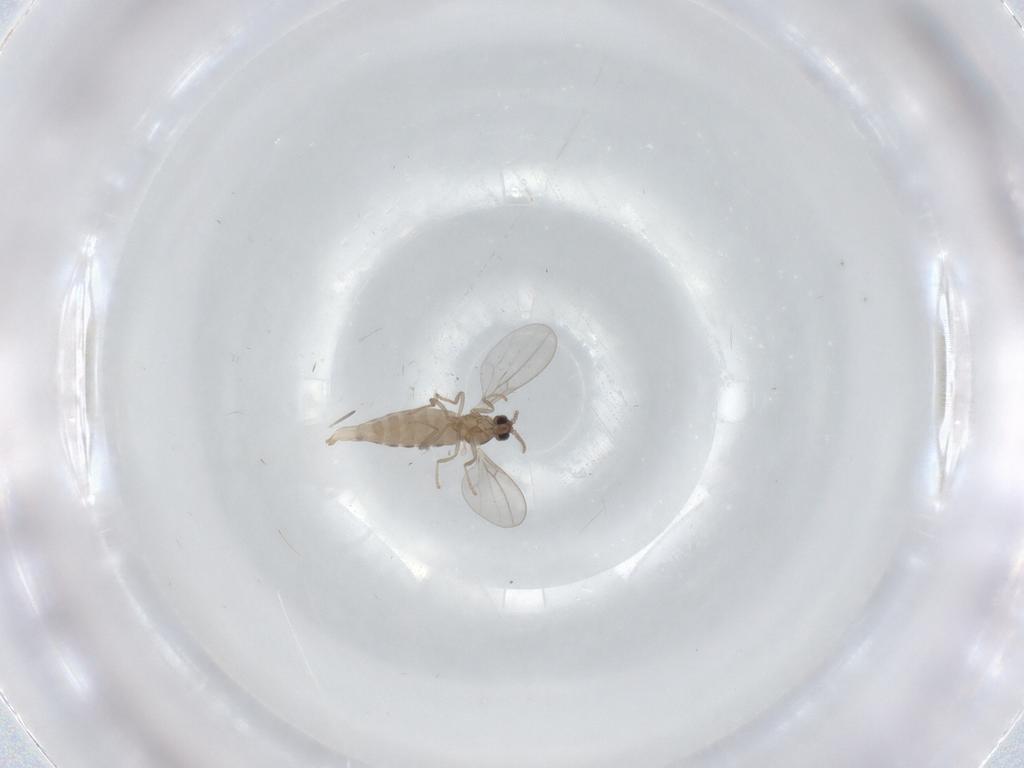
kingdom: Animalia
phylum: Arthropoda
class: Insecta
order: Diptera
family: Cecidomyiidae
